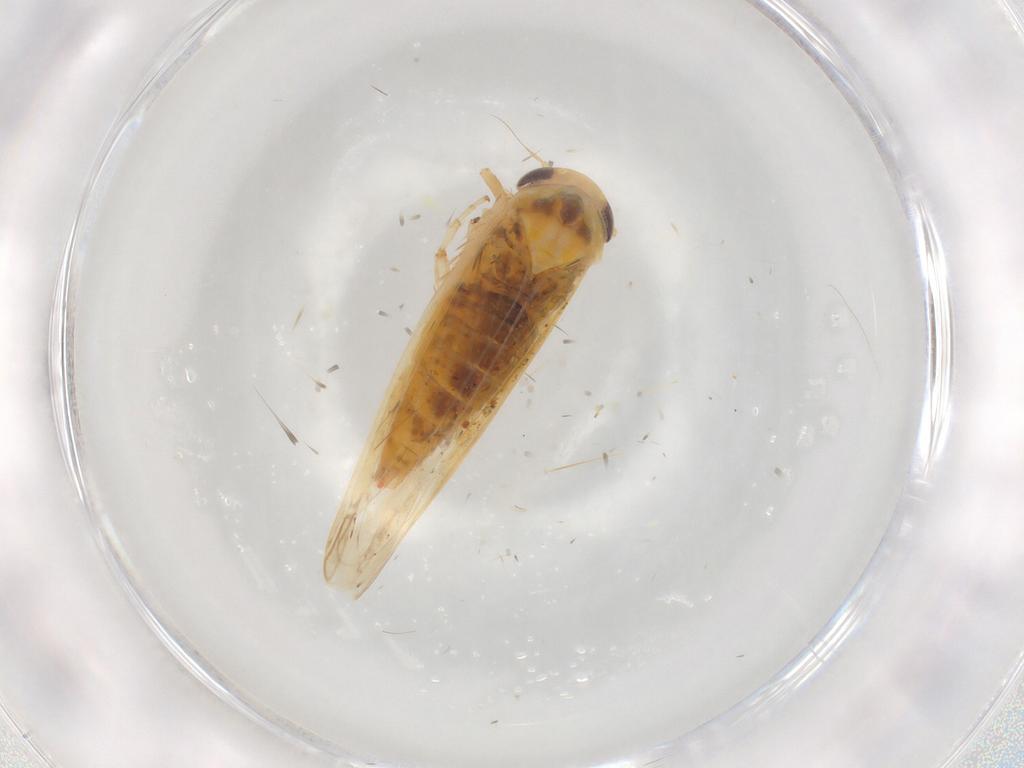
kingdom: Animalia
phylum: Arthropoda
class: Insecta
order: Hemiptera
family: Cicadellidae
